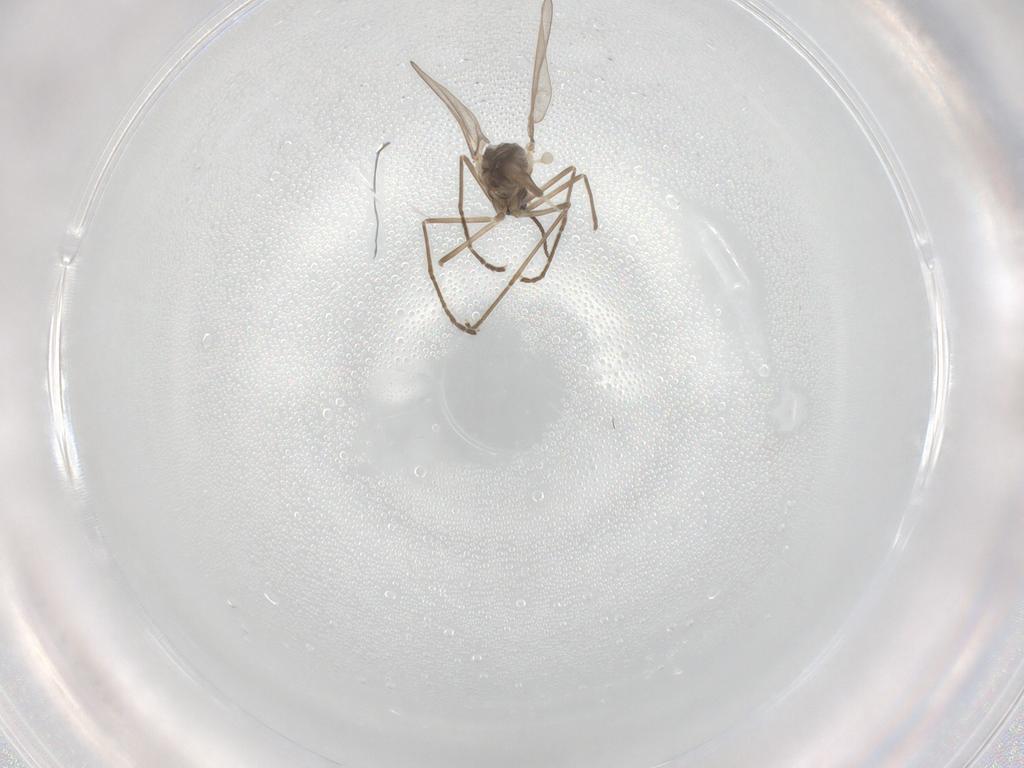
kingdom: Animalia
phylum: Arthropoda
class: Insecta
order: Diptera
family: Cecidomyiidae
